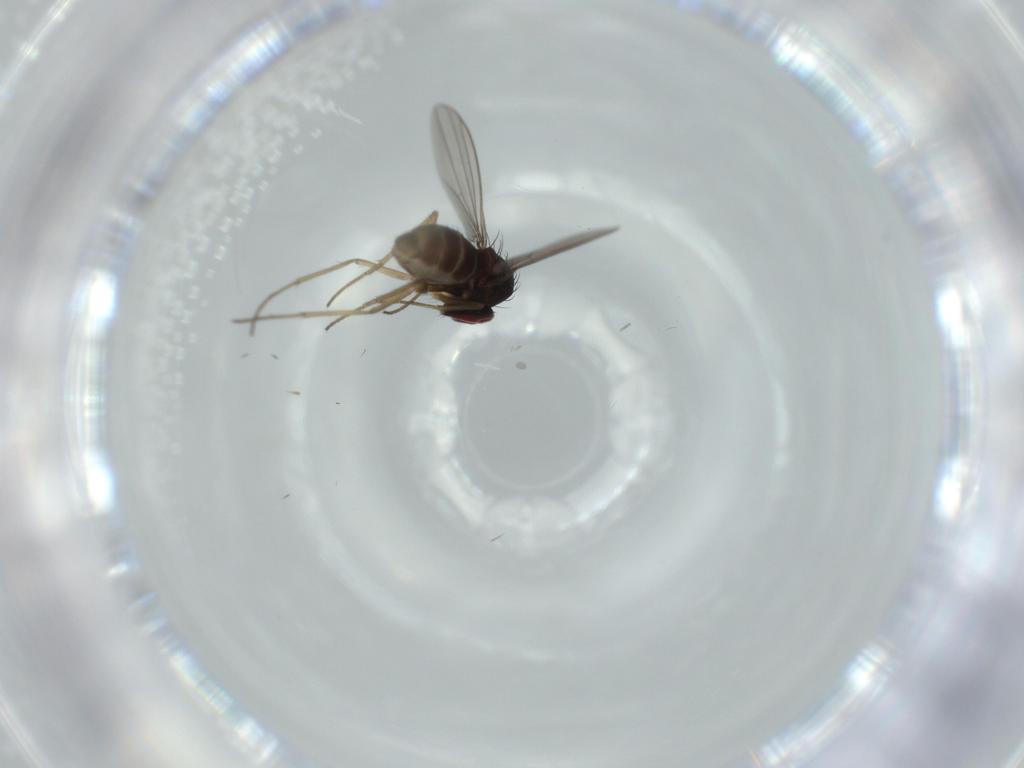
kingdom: Animalia
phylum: Arthropoda
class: Insecta
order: Diptera
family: Dolichopodidae
